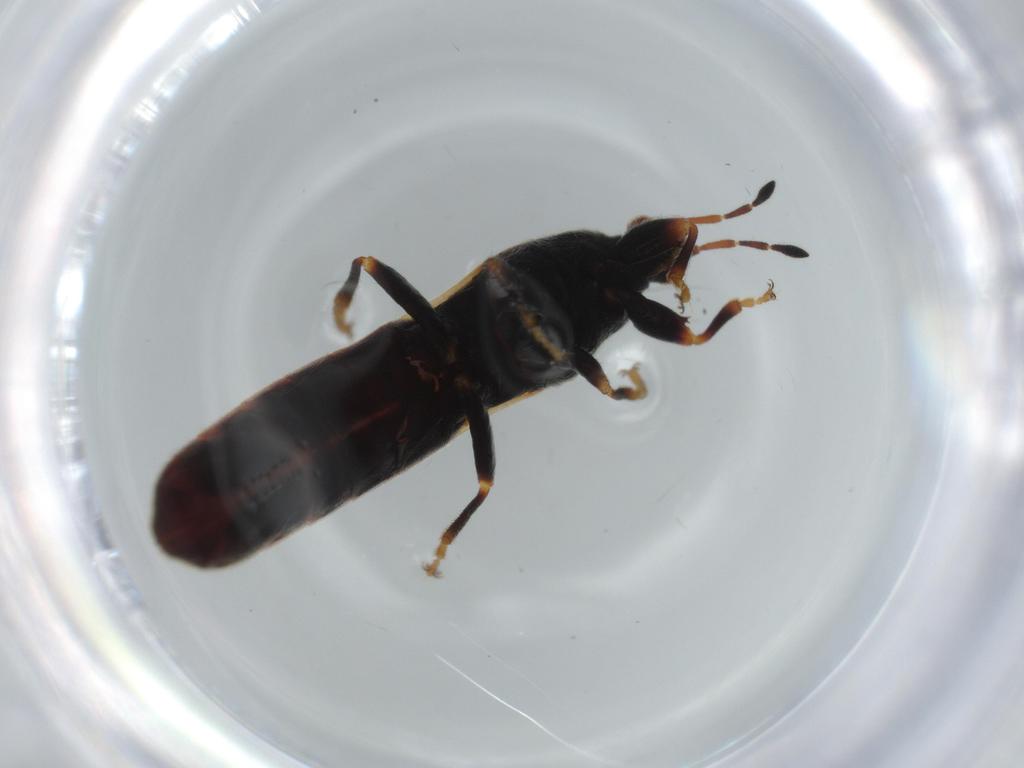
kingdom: Animalia
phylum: Arthropoda
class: Insecta
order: Hemiptera
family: Blissidae
